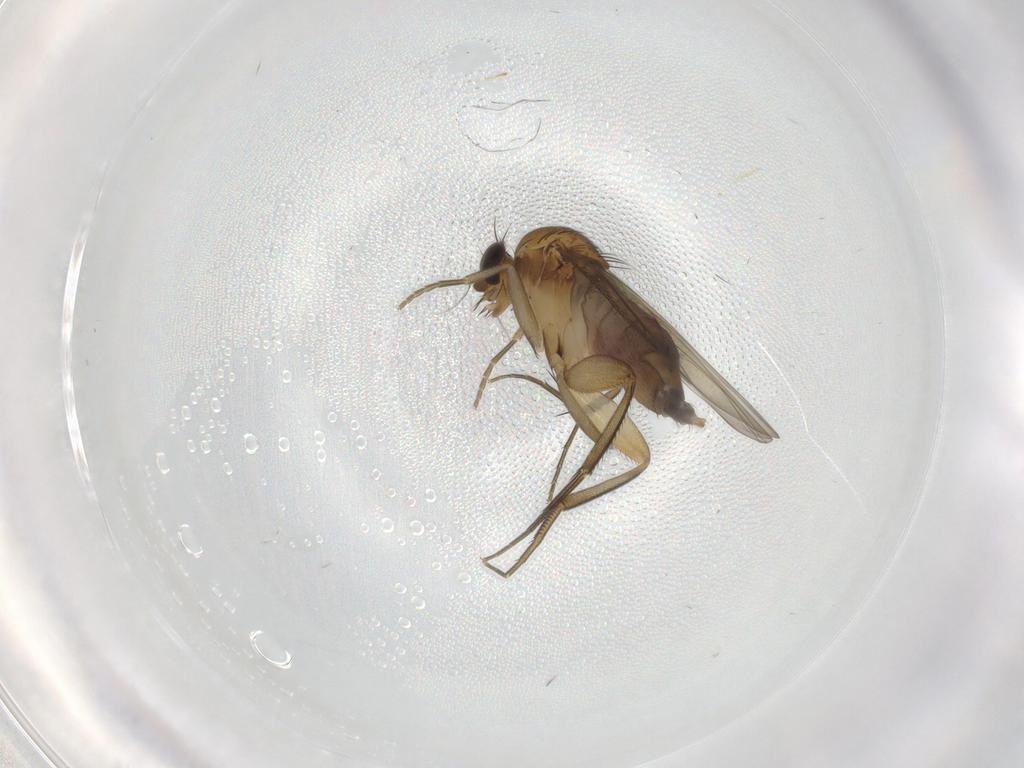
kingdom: Animalia
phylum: Arthropoda
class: Insecta
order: Diptera
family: Phoridae
